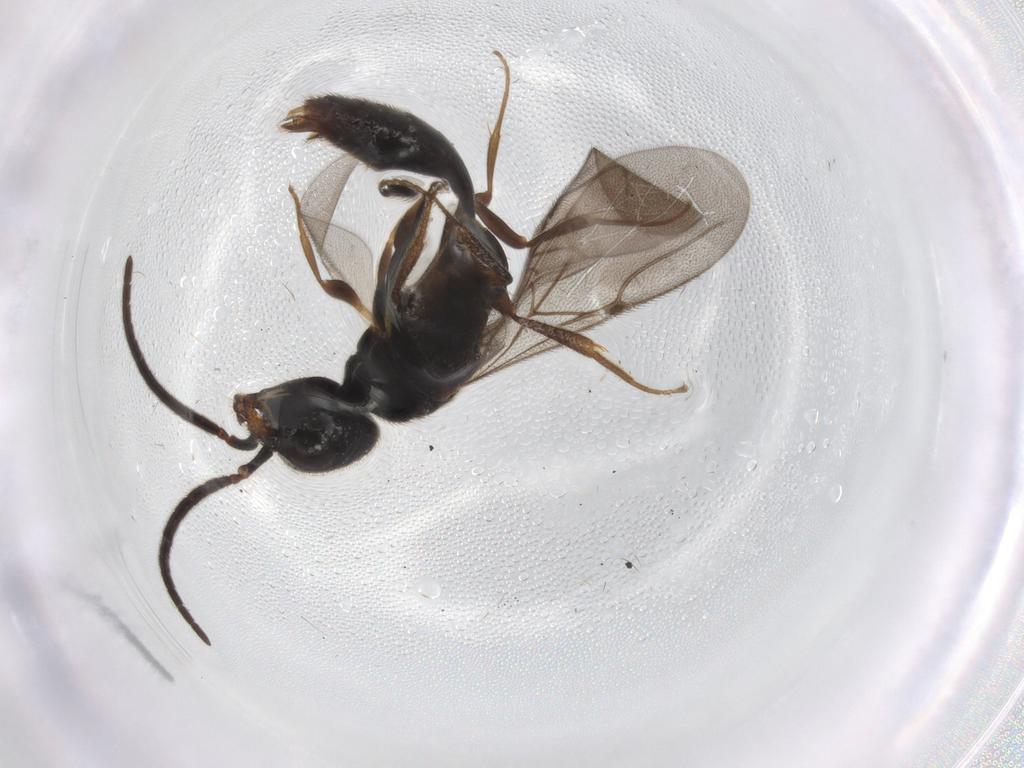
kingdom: Animalia
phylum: Arthropoda
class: Insecta
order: Hymenoptera
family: Bethylidae
